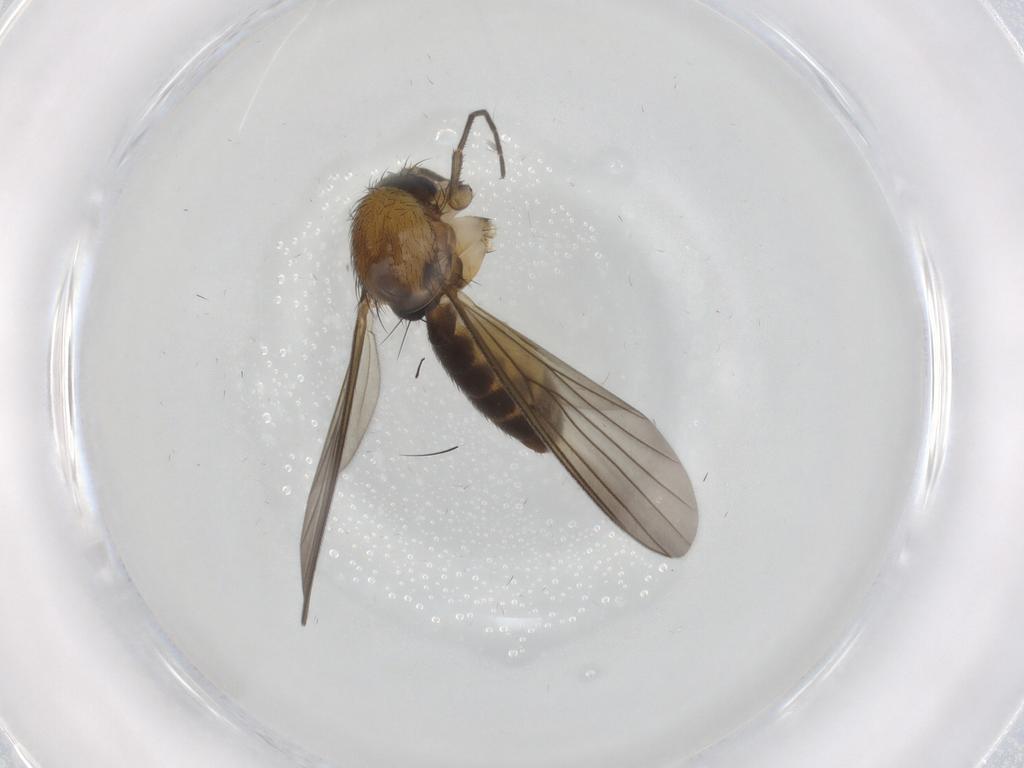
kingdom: Animalia
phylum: Arthropoda
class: Insecta
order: Diptera
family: Mycetophilidae
